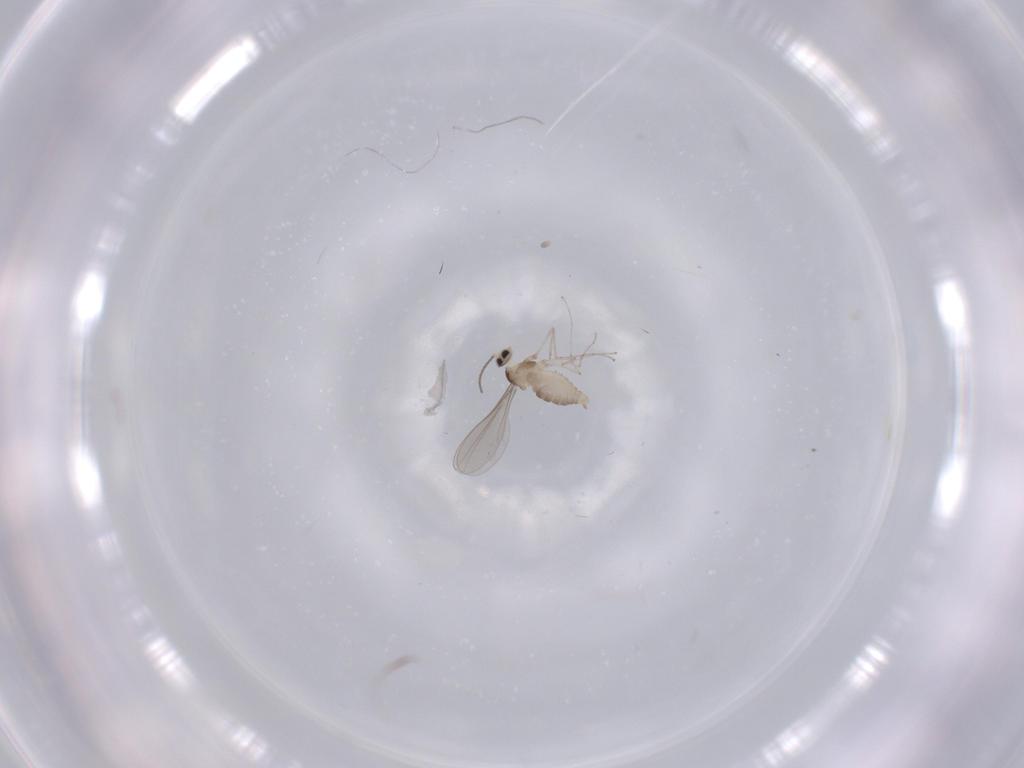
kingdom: Animalia
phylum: Arthropoda
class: Insecta
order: Diptera
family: Cecidomyiidae
